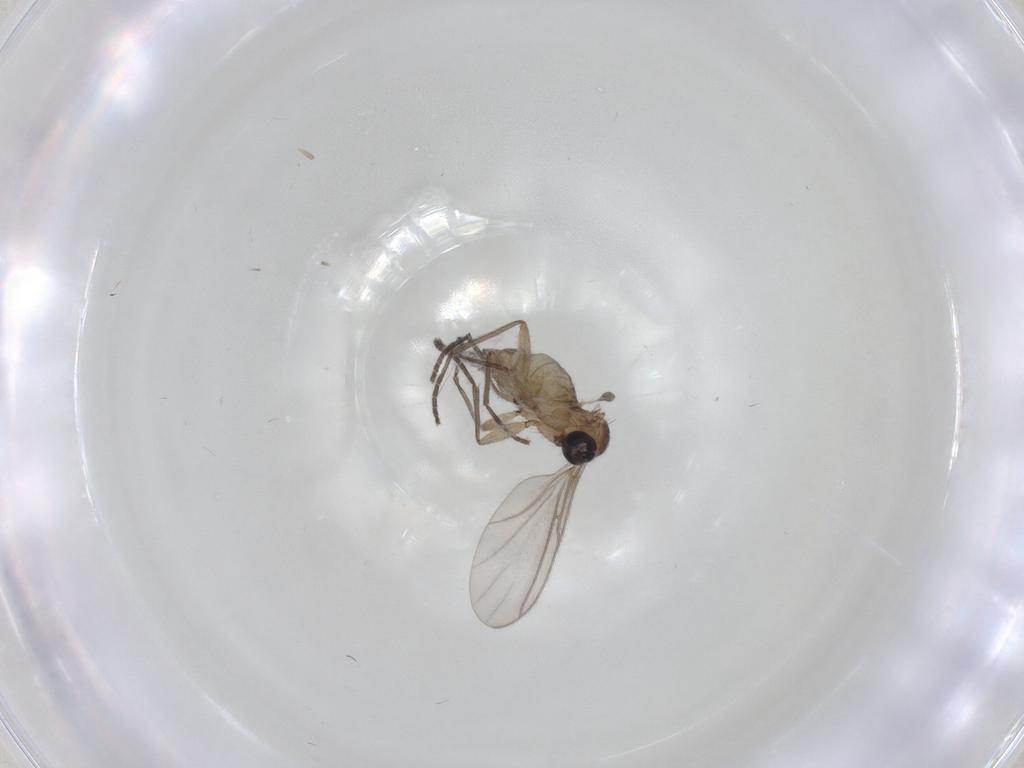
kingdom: Animalia
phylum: Arthropoda
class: Insecta
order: Diptera
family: Sciaridae
